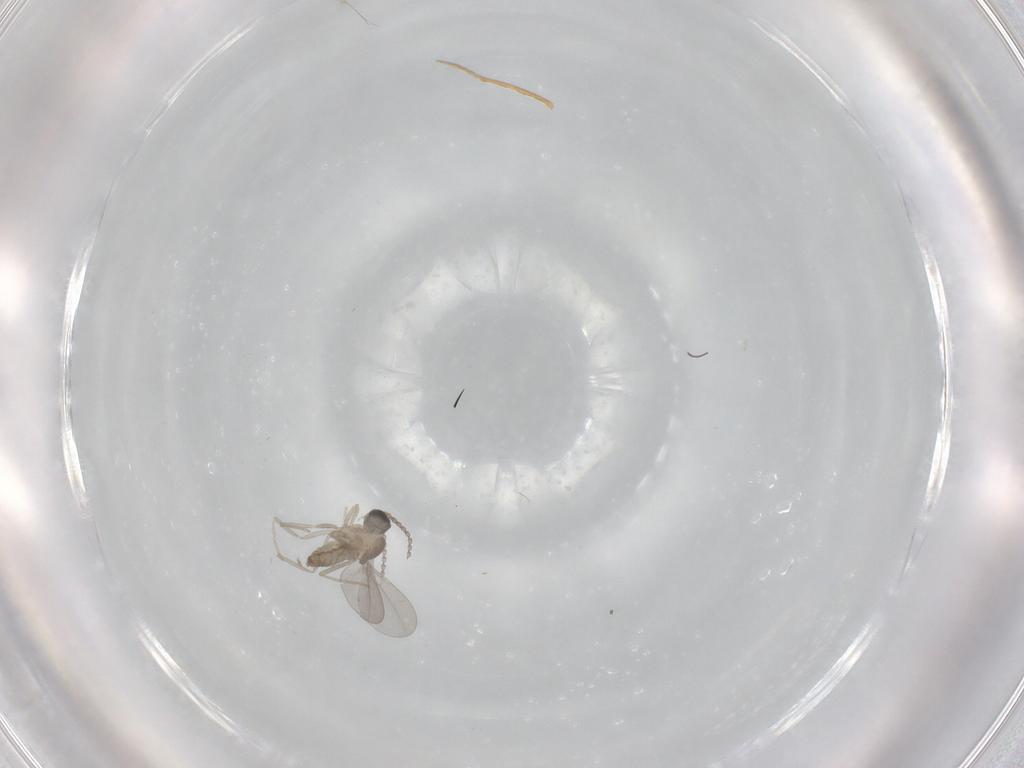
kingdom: Animalia
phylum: Arthropoda
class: Insecta
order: Diptera
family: Cecidomyiidae
